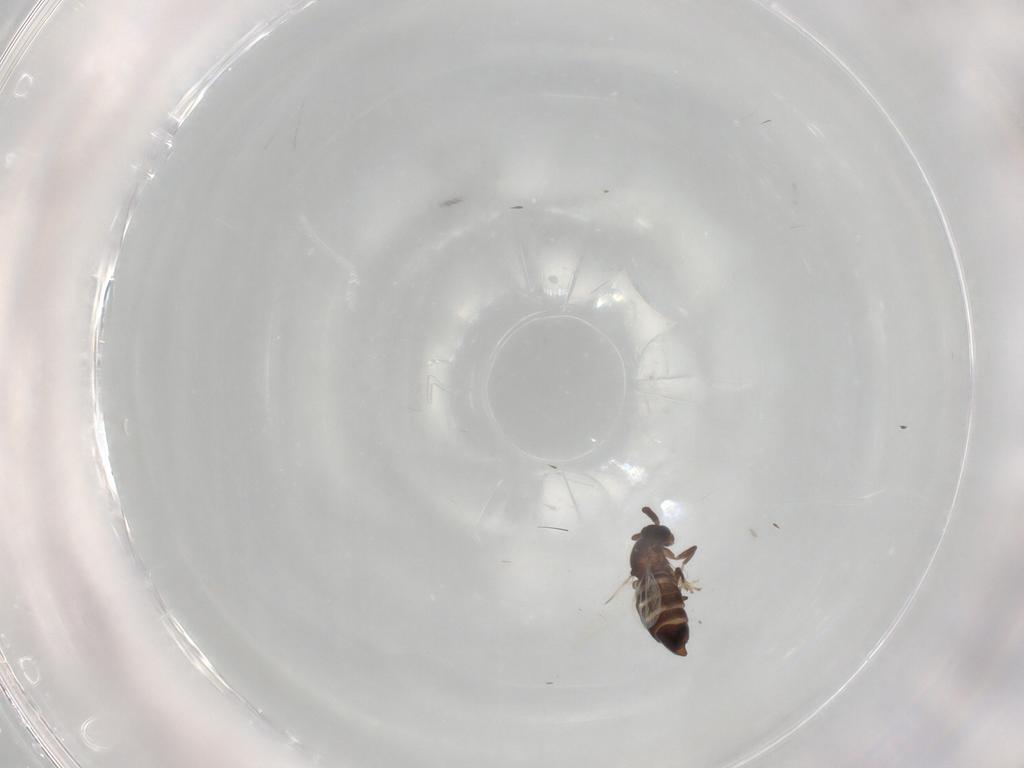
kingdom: Animalia
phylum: Arthropoda
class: Insecta
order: Diptera
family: Scatopsidae
